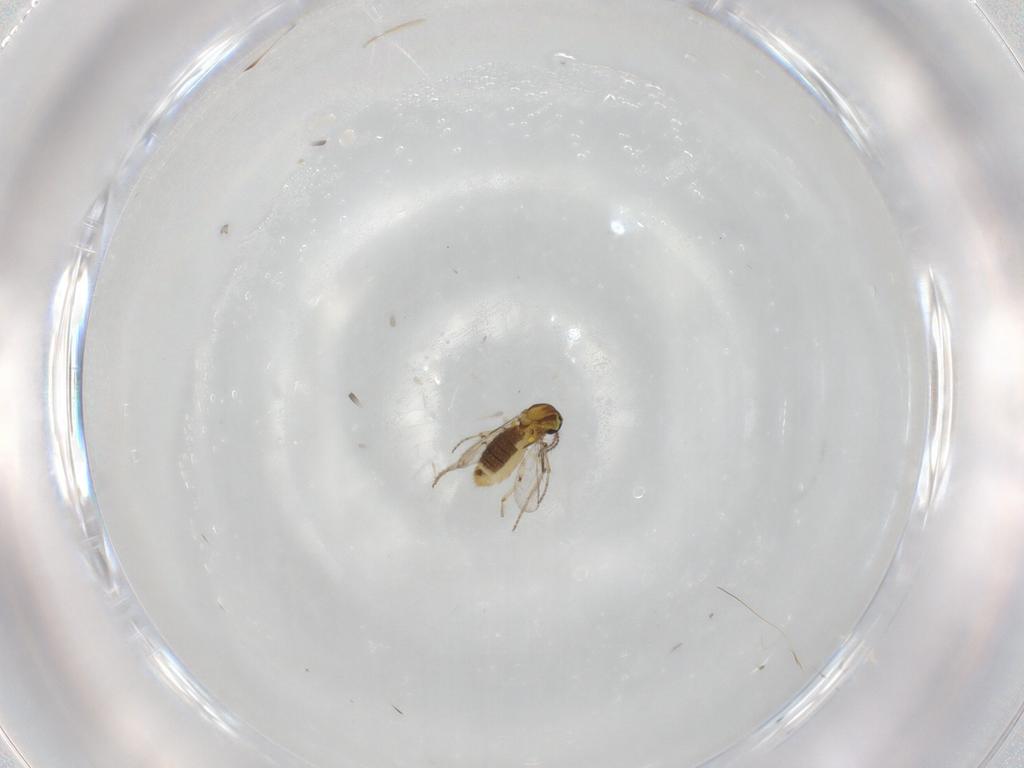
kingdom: Animalia
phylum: Arthropoda
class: Insecta
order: Diptera
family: Ceratopogonidae
